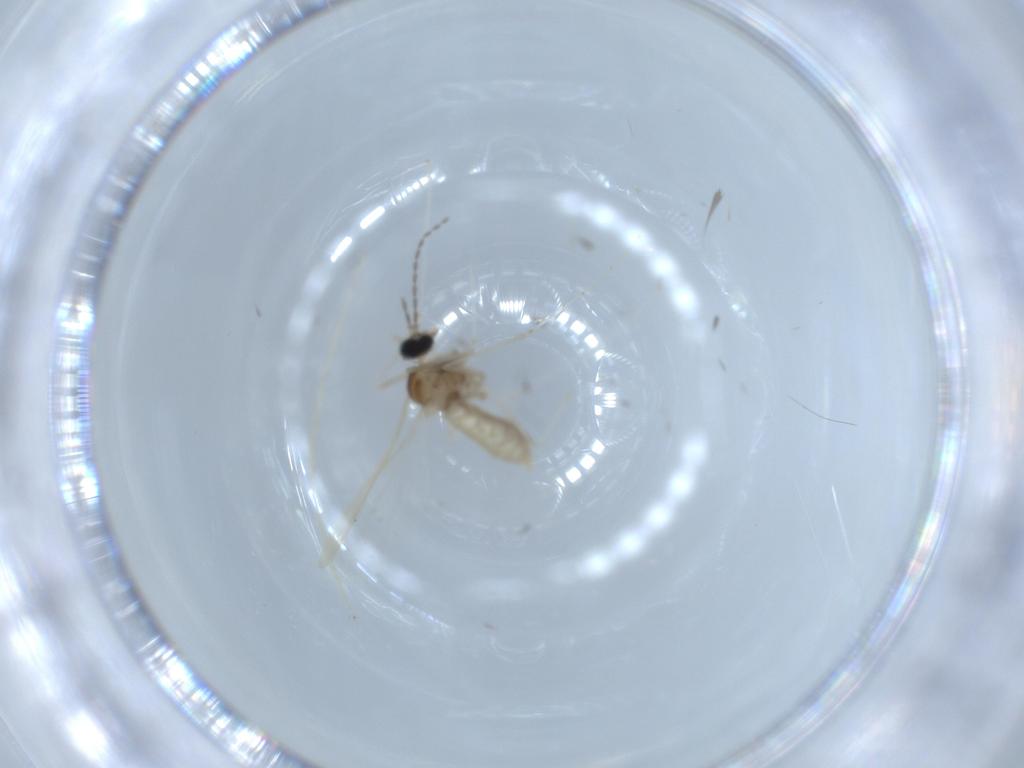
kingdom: Animalia
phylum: Arthropoda
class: Insecta
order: Diptera
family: Cecidomyiidae
